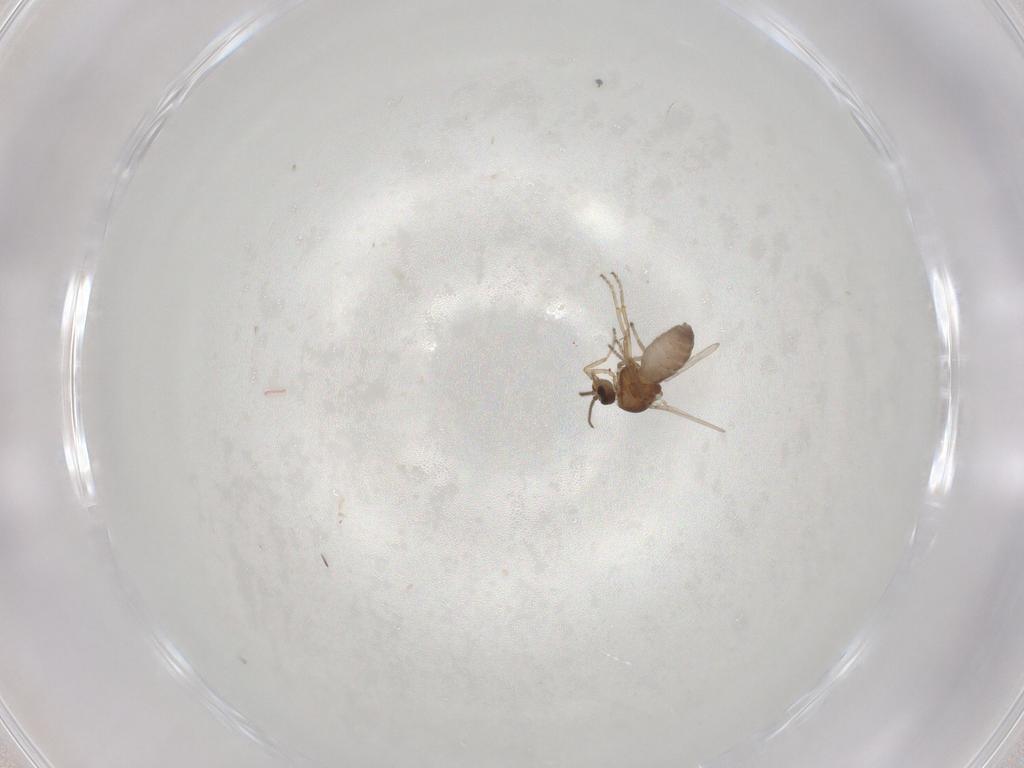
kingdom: Animalia
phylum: Arthropoda
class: Insecta
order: Diptera
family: Ceratopogonidae
